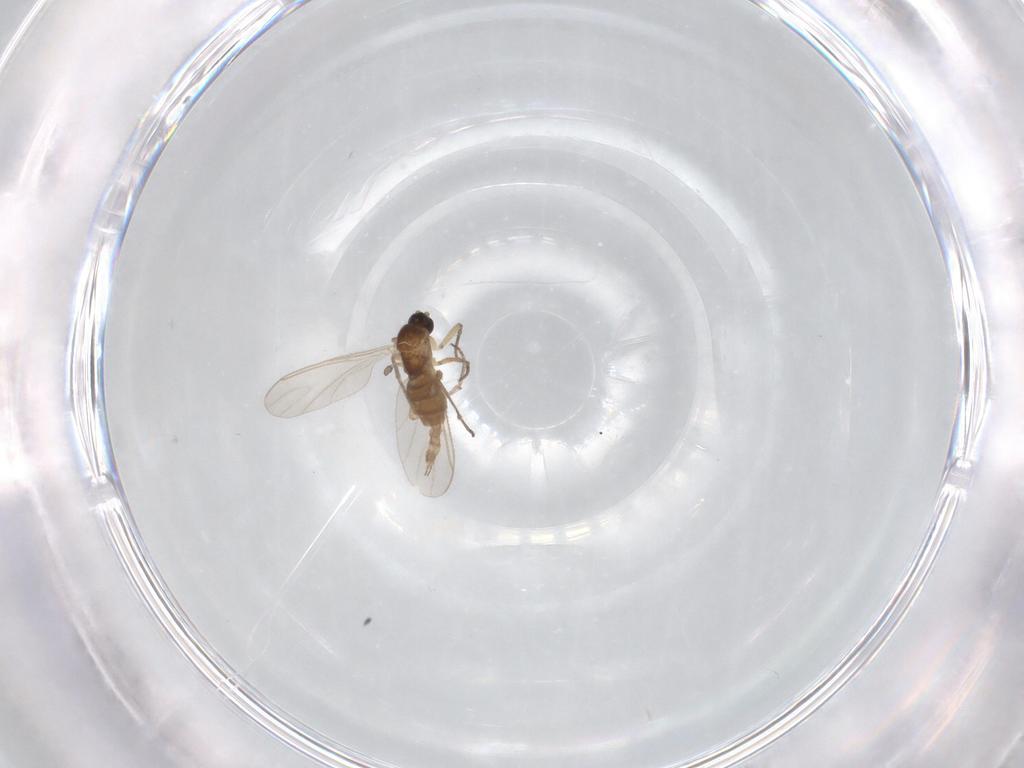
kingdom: Animalia
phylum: Arthropoda
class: Insecta
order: Diptera
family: Sciaridae
